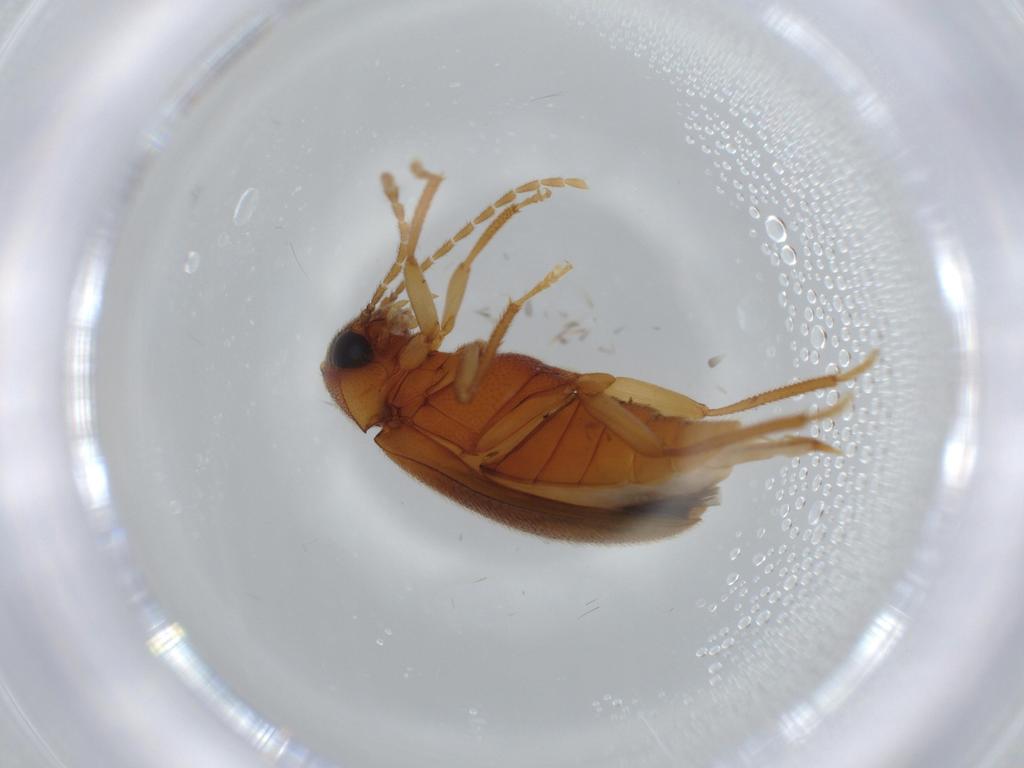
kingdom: Animalia
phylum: Arthropoda
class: Insecta
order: Coleoptera
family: Ptilodactylidae
